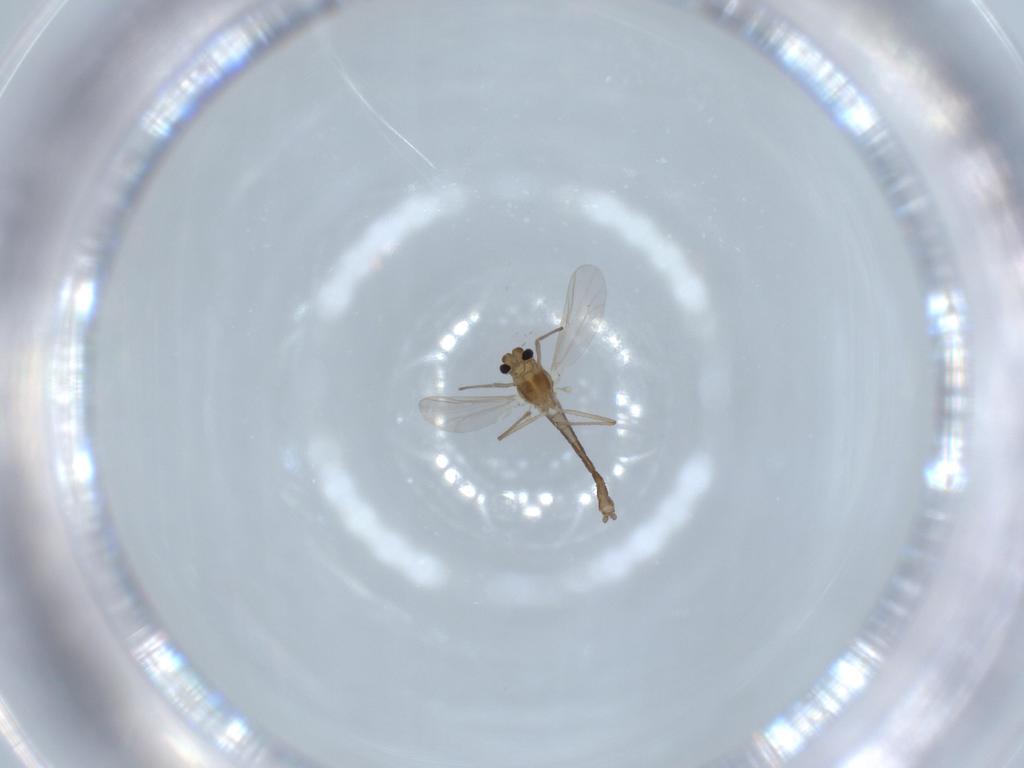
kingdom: Animalia
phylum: Arthropoda
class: Insecta
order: Diptera
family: Chironomidae
